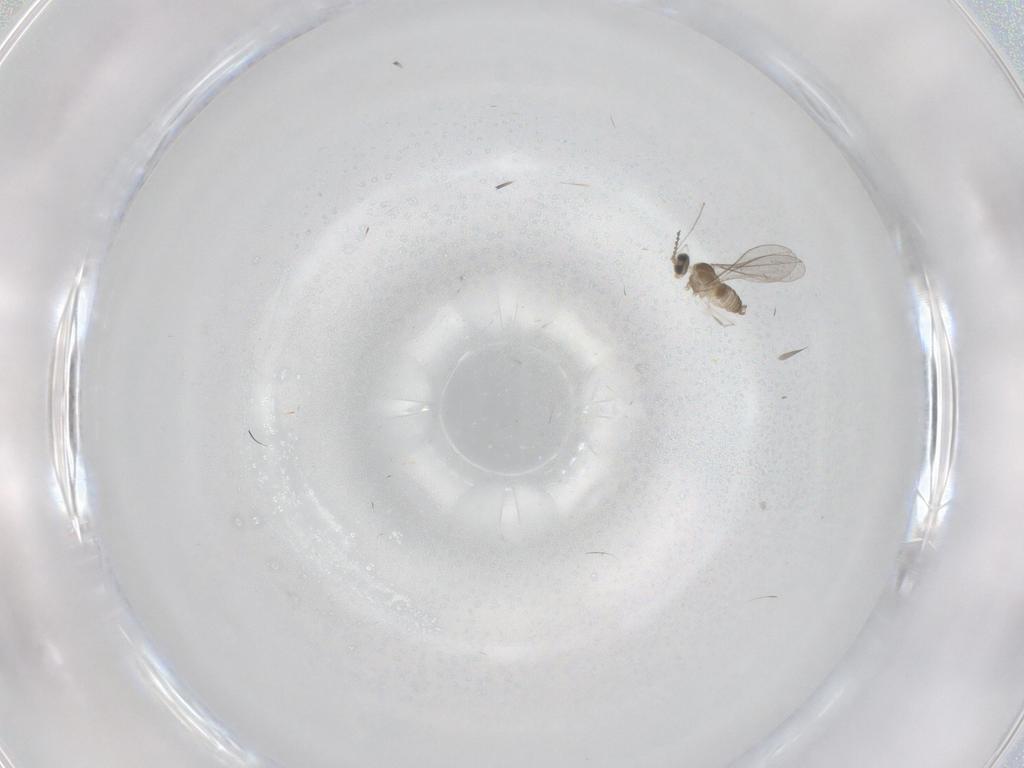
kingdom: Animalia
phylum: Arthropoda
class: Insecta
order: Diptera
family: Cecidomyiidae
